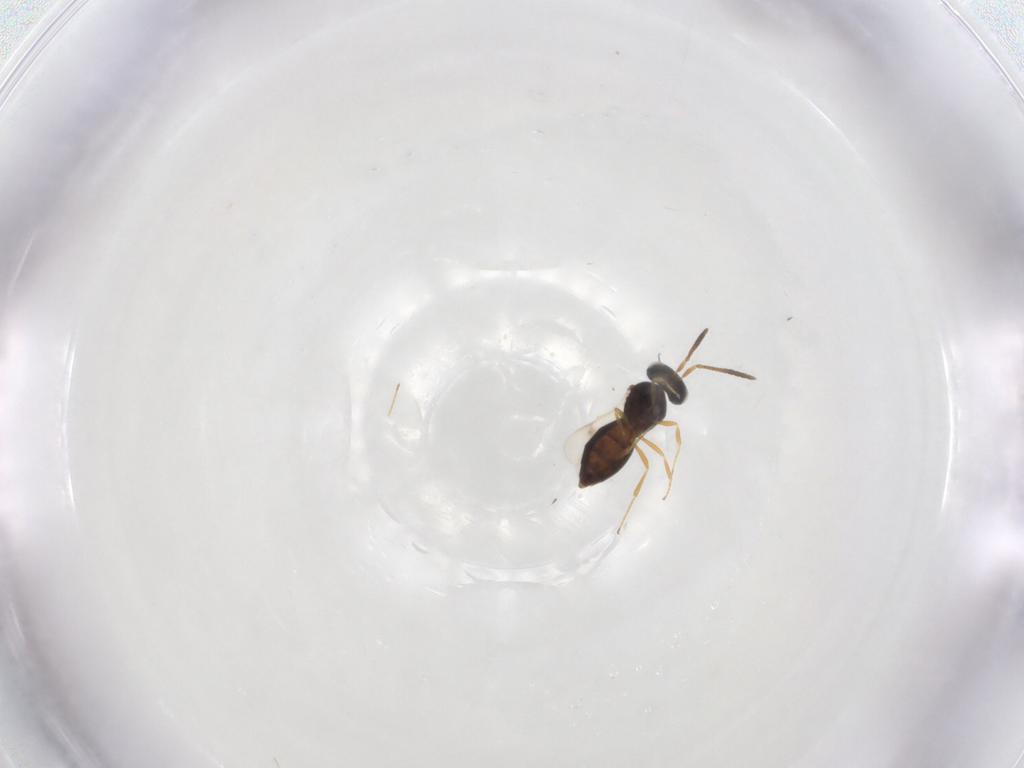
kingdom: Animalia
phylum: Arthropoda
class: Insecta
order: Hymenoptera
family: Scelionidae
